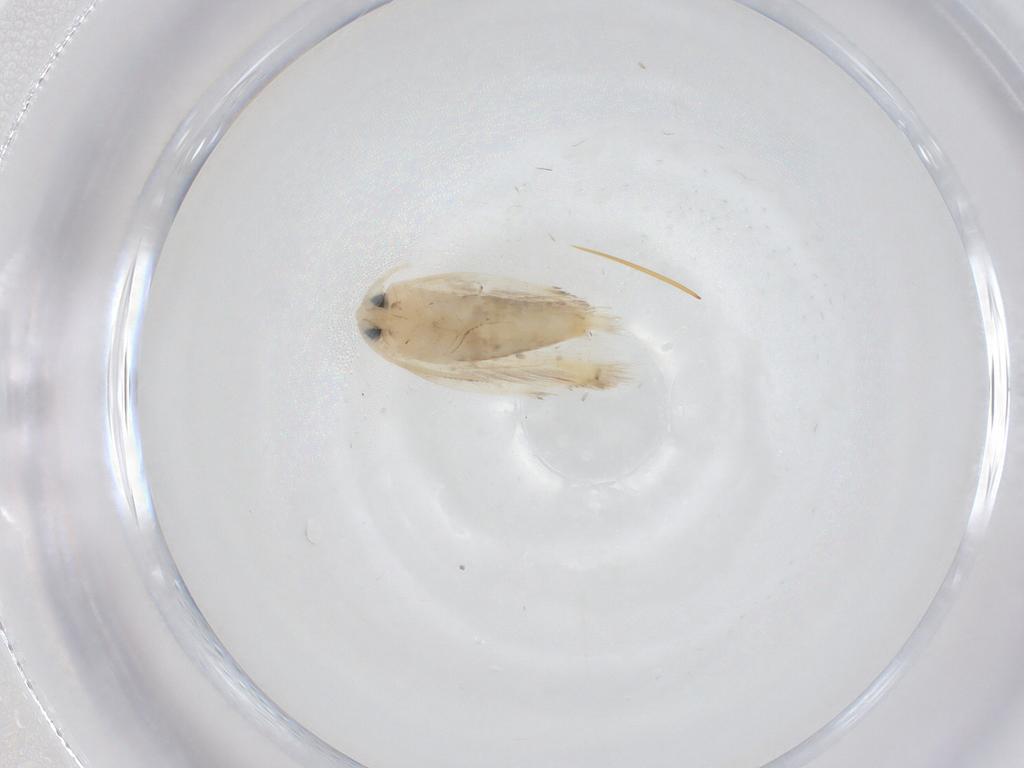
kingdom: Animalia
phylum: Arthropoda
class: Insecta
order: Lepidoptera
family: Opostegidae
